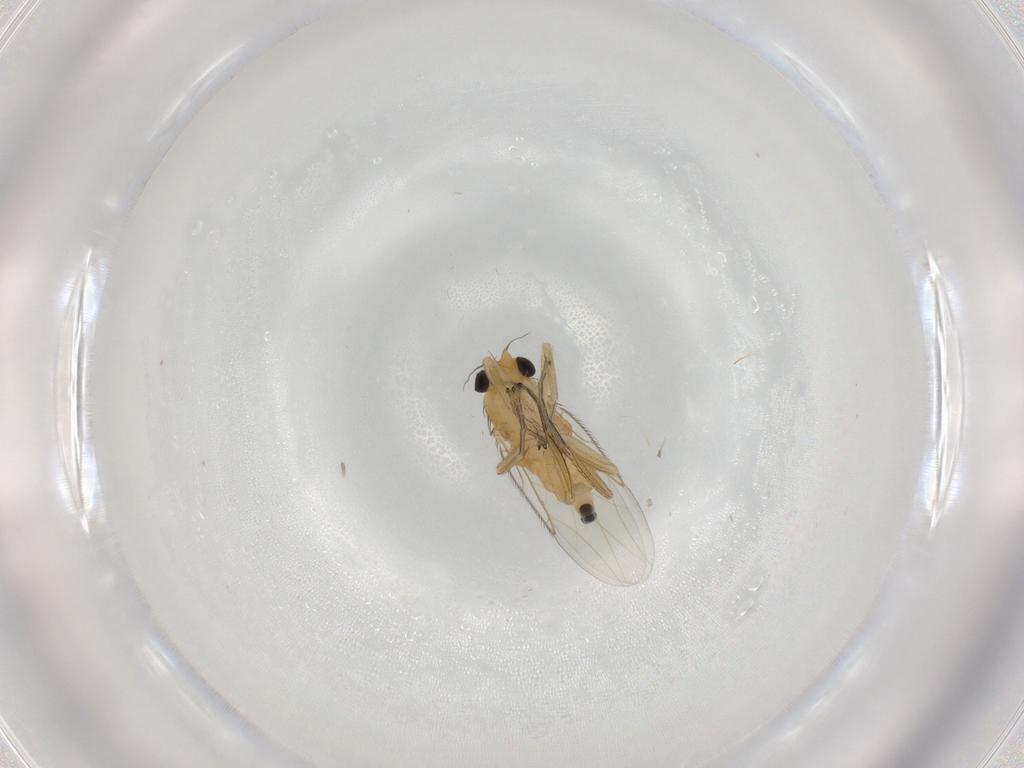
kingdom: Animalia
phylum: Arthropoda
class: Insecta
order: Diptera
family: Phoridae
